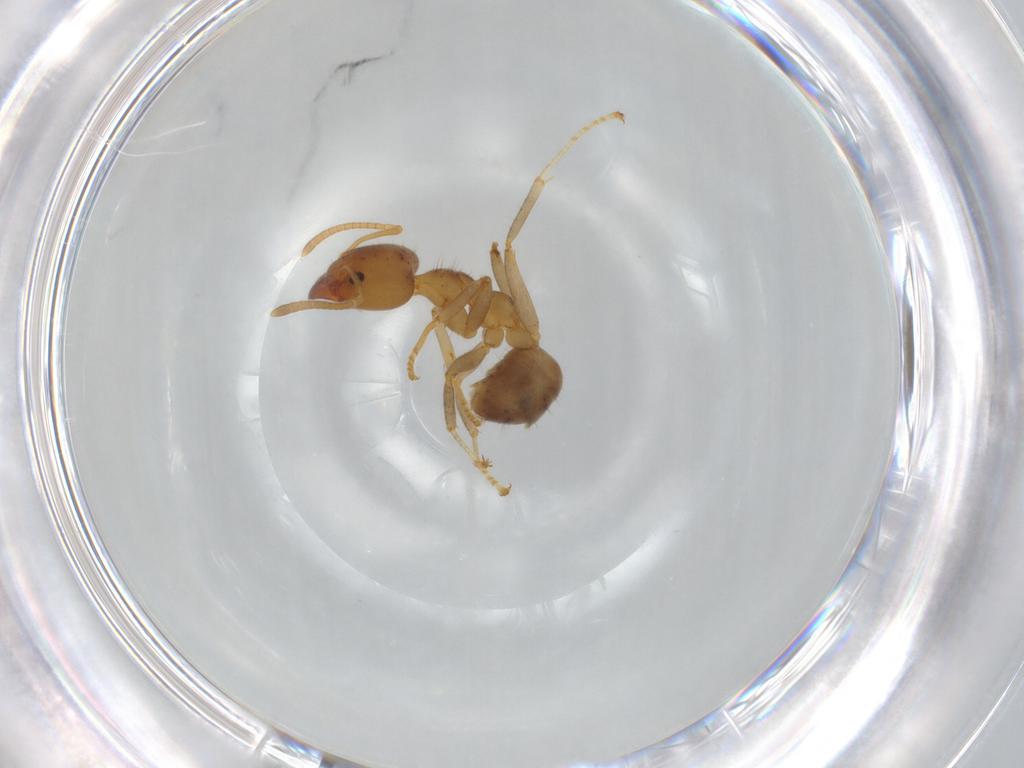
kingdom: Animalia
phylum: Arthropoda
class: Insecta
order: Hymenoptera
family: Formicidae
